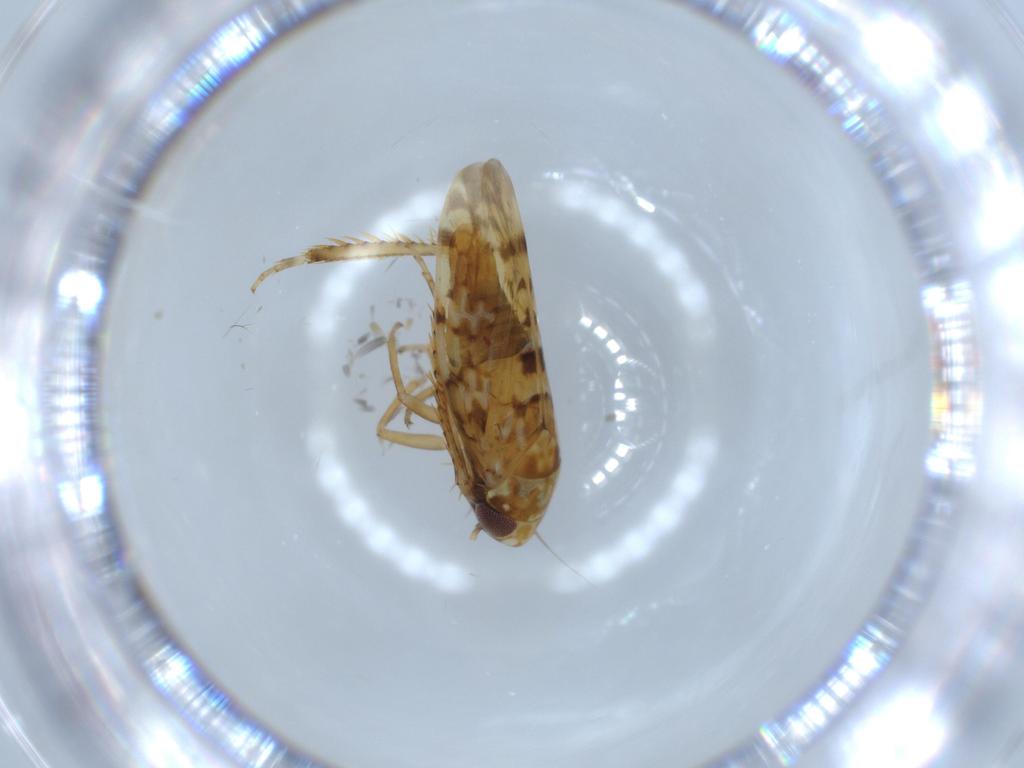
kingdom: Animalia
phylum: Arthropoda
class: Insecta
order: Hemiptera
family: Cicadellidae
